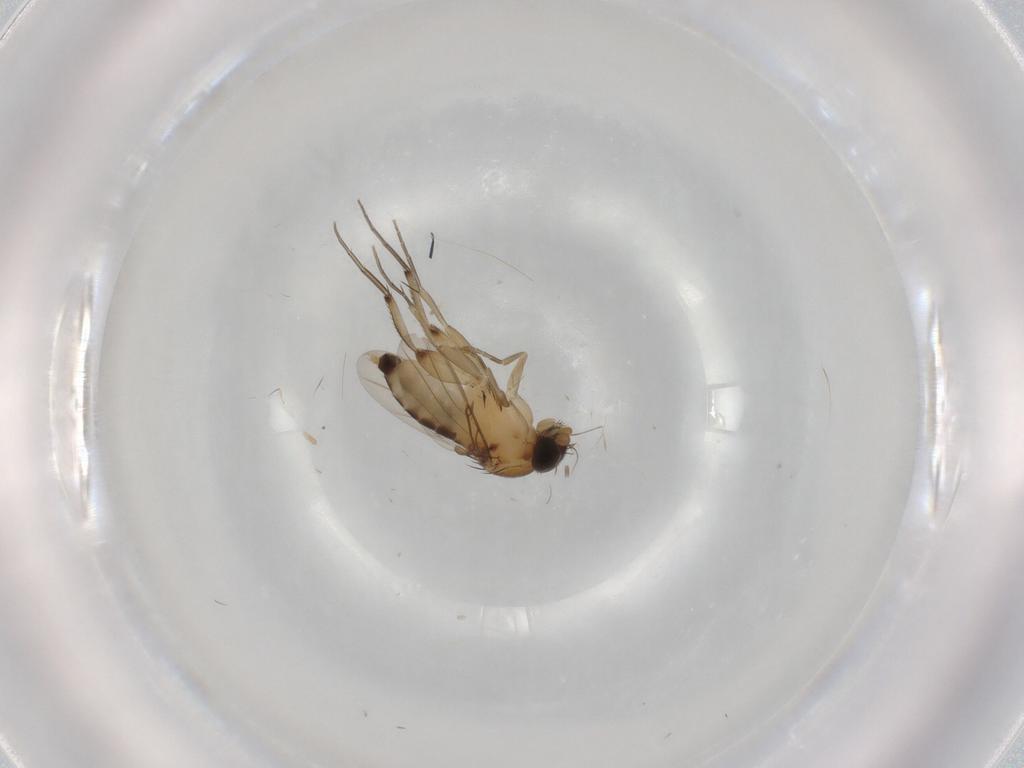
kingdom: Animalia
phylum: Arthropoda
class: Insecta
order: Diptera
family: Phoridae
